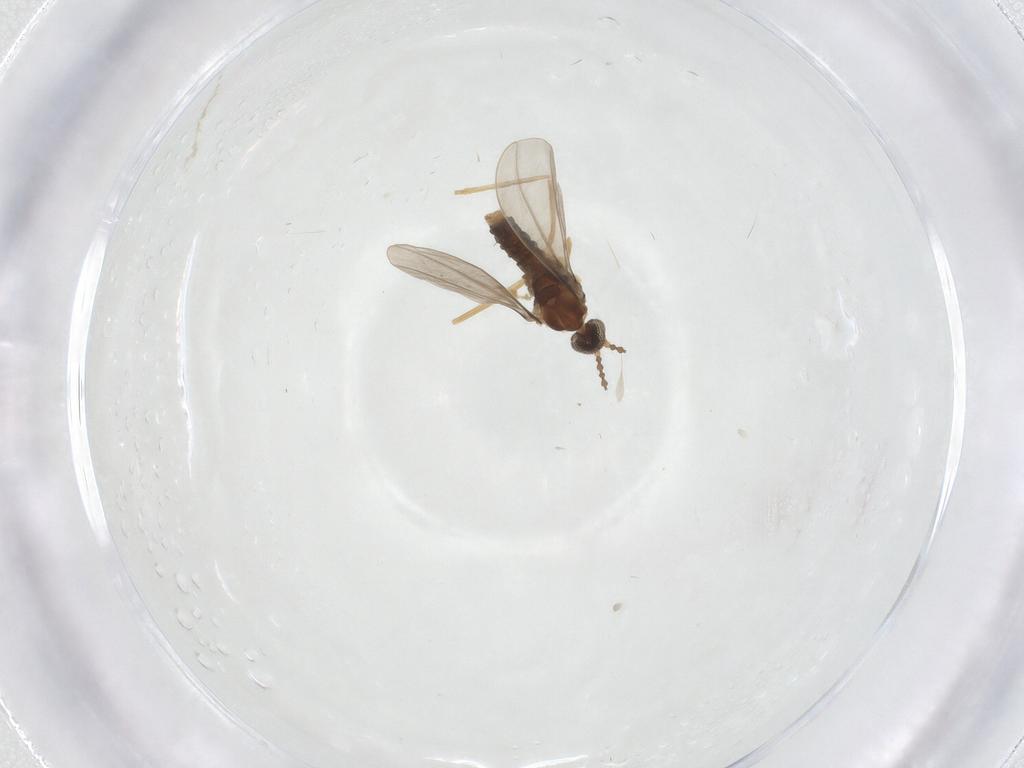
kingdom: Animalia
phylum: Arthropoda
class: Insecta
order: Diptera
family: Cecidomyiidae
